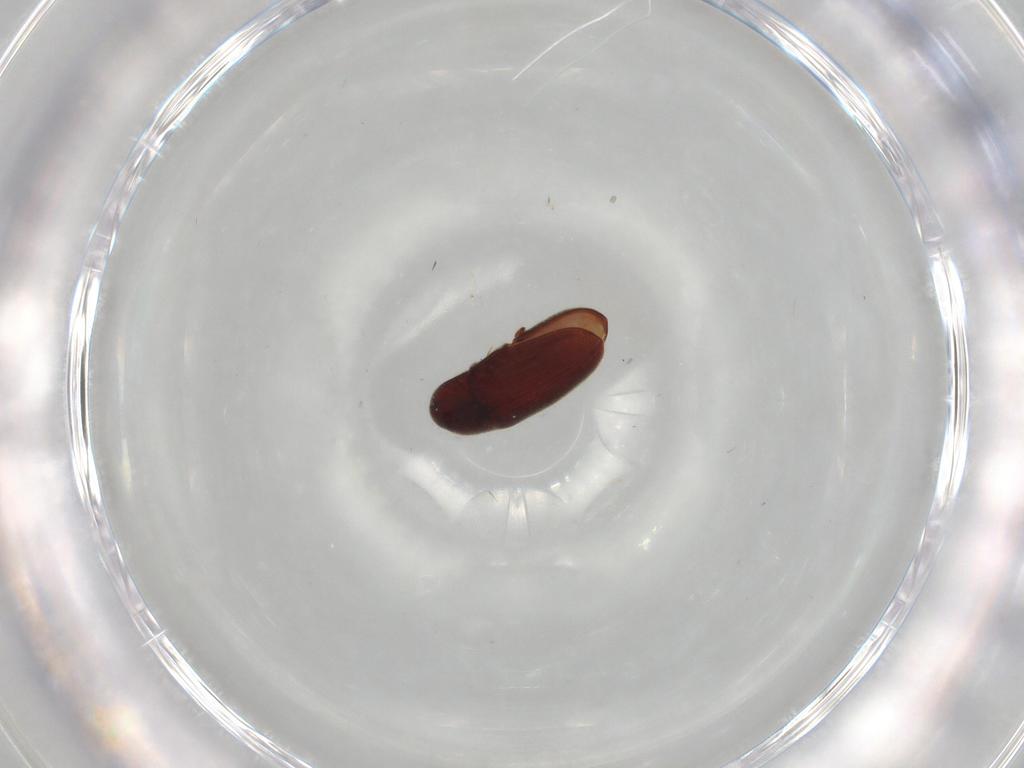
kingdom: Animalia
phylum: Arthropoda
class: Insecta
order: Coleoptera
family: Throscidae
